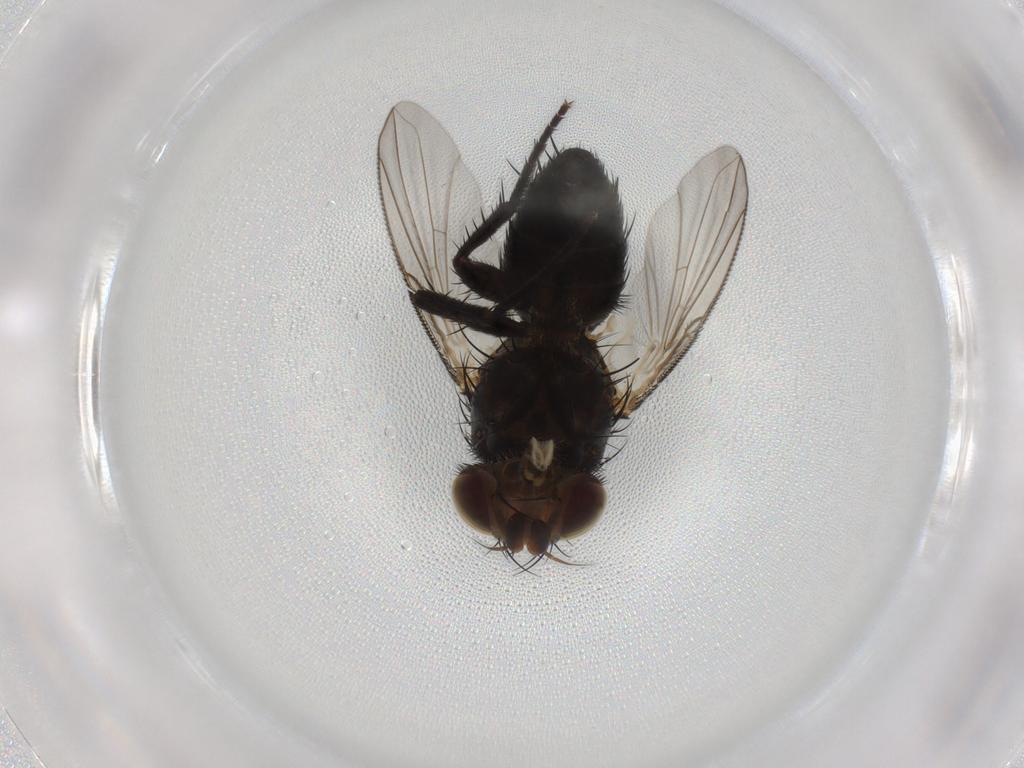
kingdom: Animalia
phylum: Arthropoda
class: Insecta
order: Diptera
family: Tachinidae
